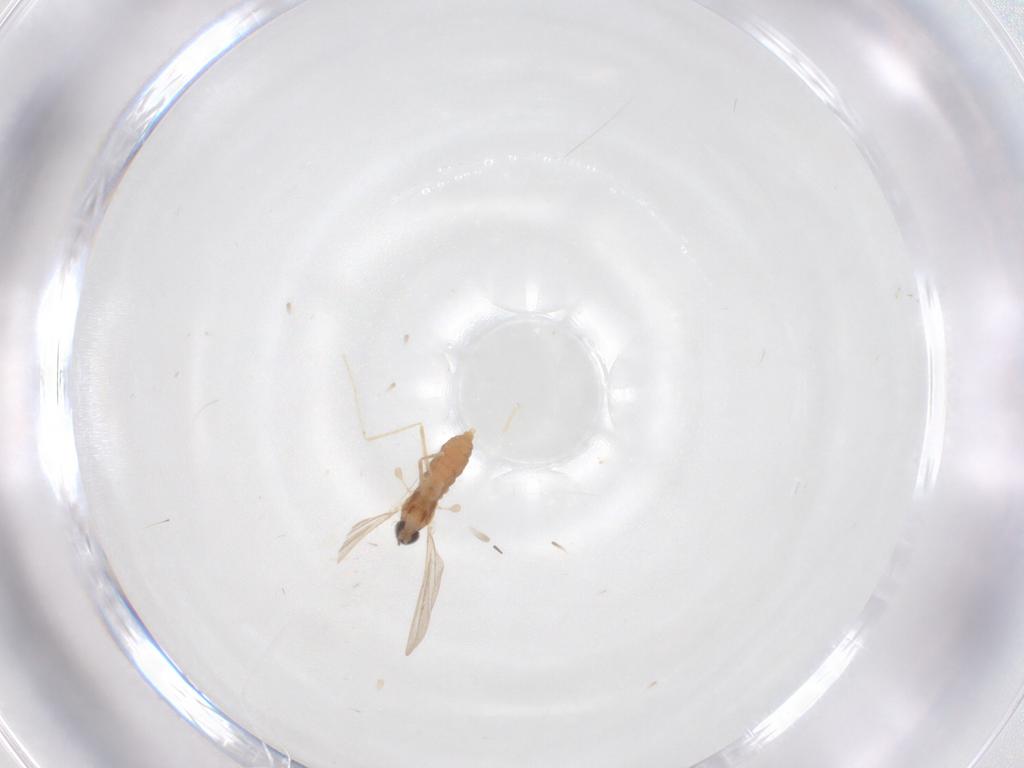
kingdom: Animalia
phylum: Arthropoda
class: Insecta
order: Diptera
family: Cecidomyiidae
